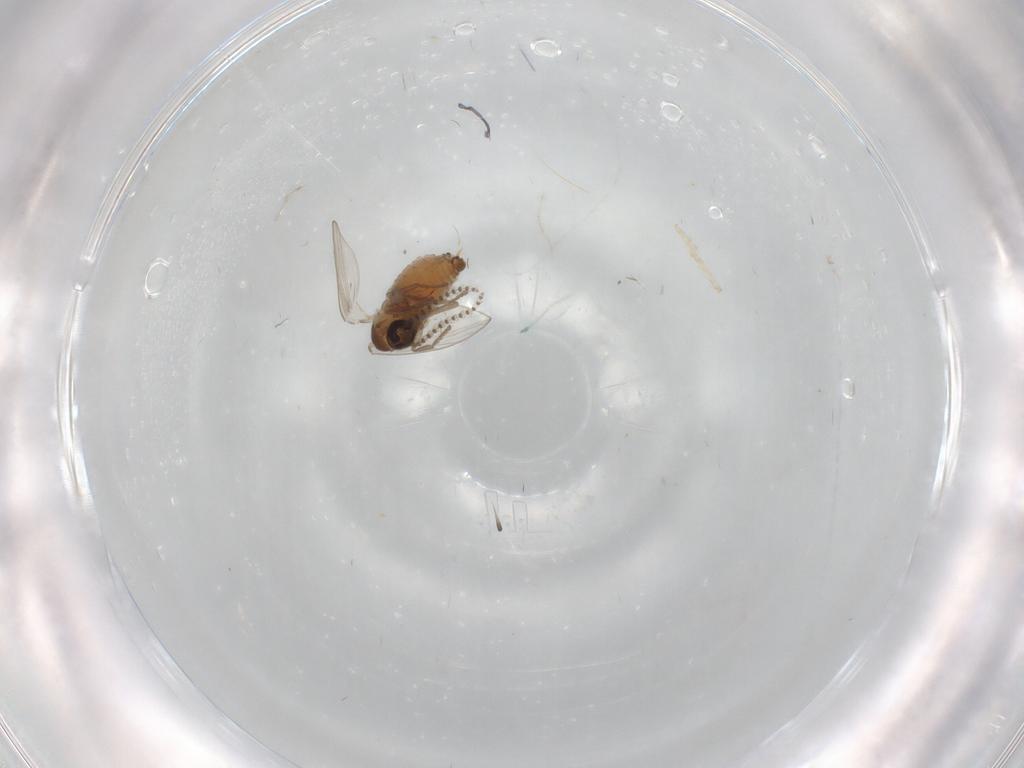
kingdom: Animalia
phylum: Arthropoda
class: Insecta
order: Diptera
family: Psychodidae
